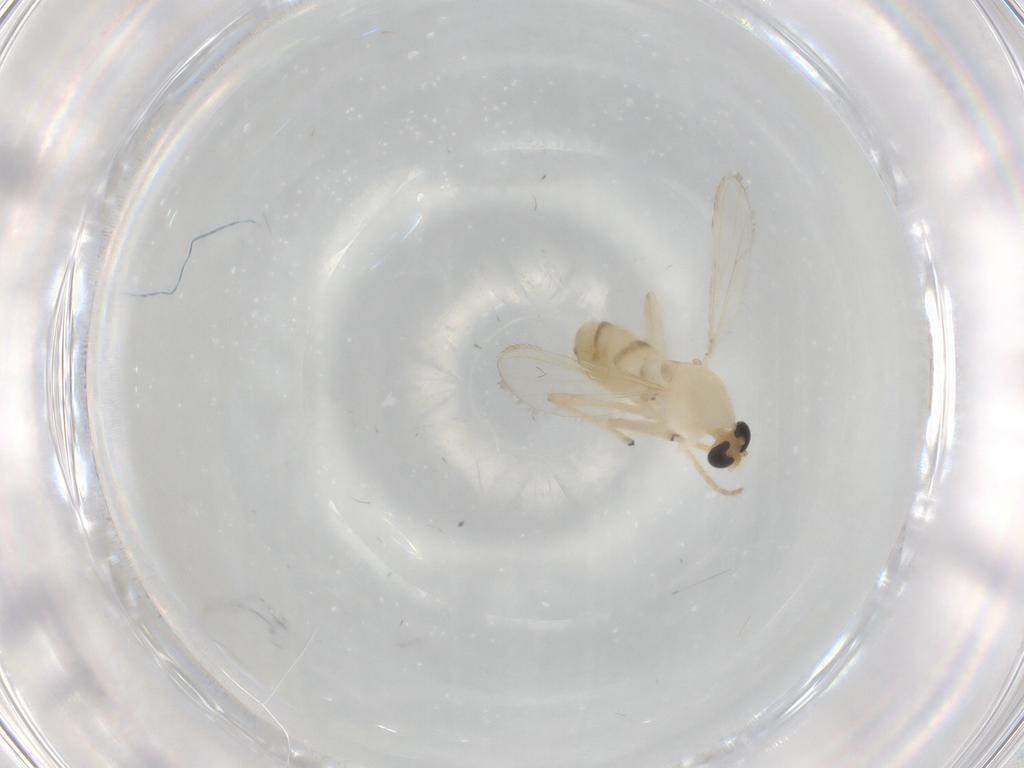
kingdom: Animalia
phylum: Arthropoda
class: Insecta
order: Diptera
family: Chironomidae
